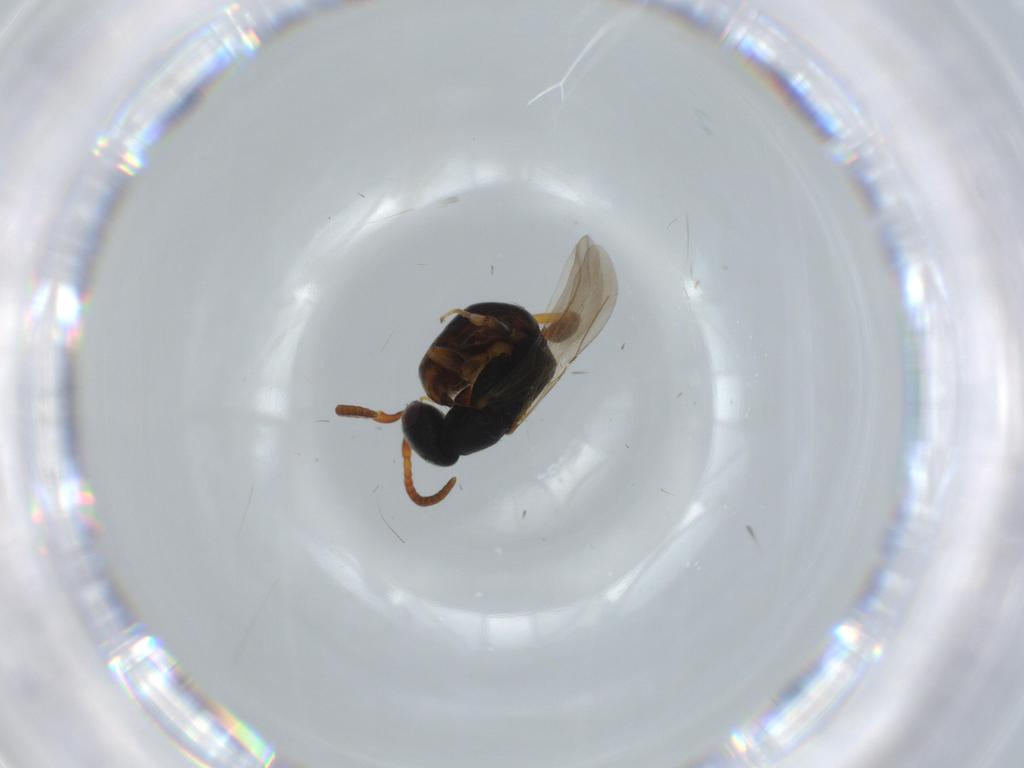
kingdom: Animalia
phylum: Arthropoda
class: Insecta
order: Hymenoptera
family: Bethylidae
